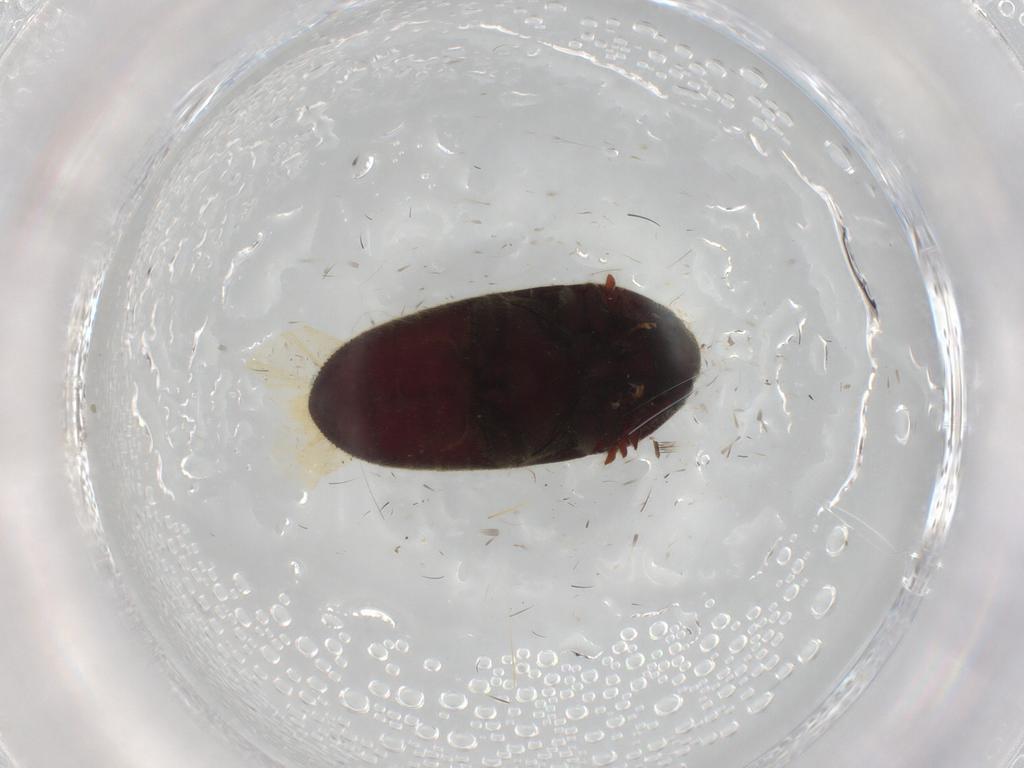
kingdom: Animalia
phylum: Arthropoda
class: Insecta
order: Coleoptera
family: Throscidae
